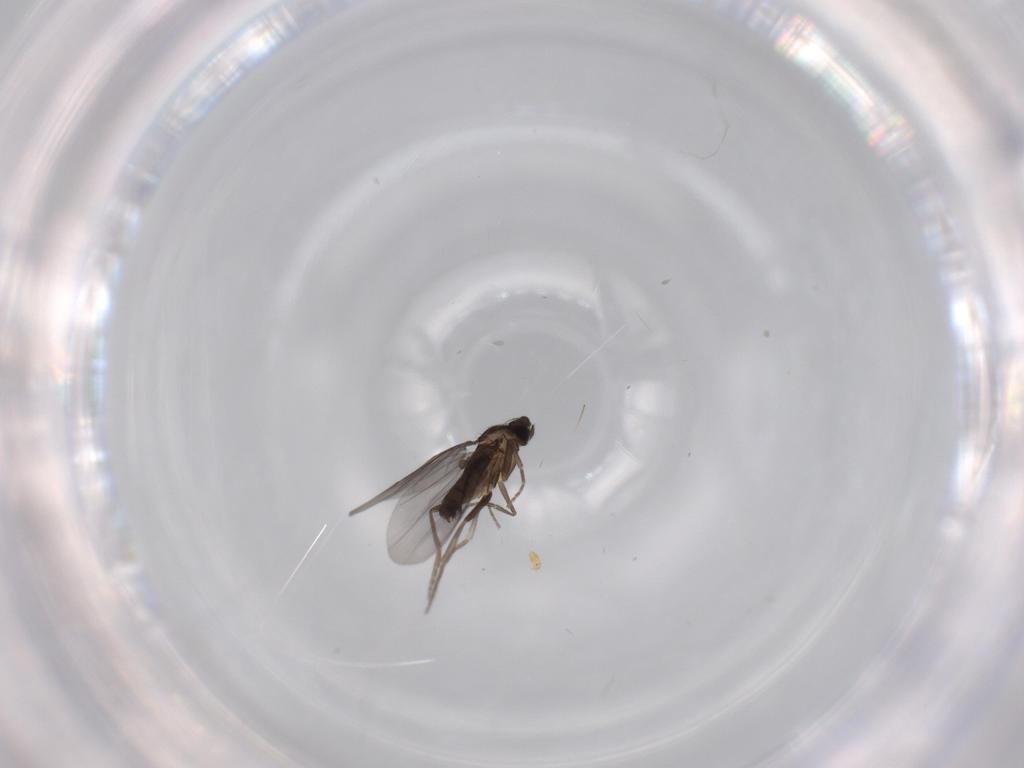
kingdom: Animalia
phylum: Arthropoda
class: Insecta
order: Diptera
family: Phoridae
